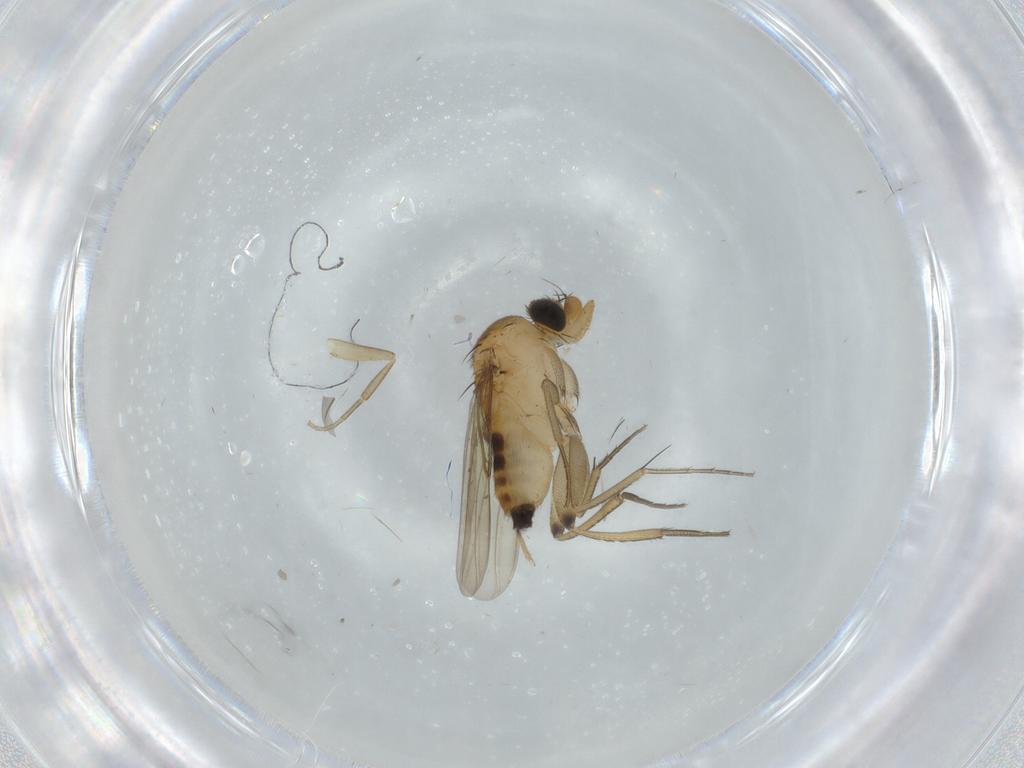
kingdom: Animalia
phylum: Arthropoda
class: Insecta
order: Diptera
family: Phoridae
